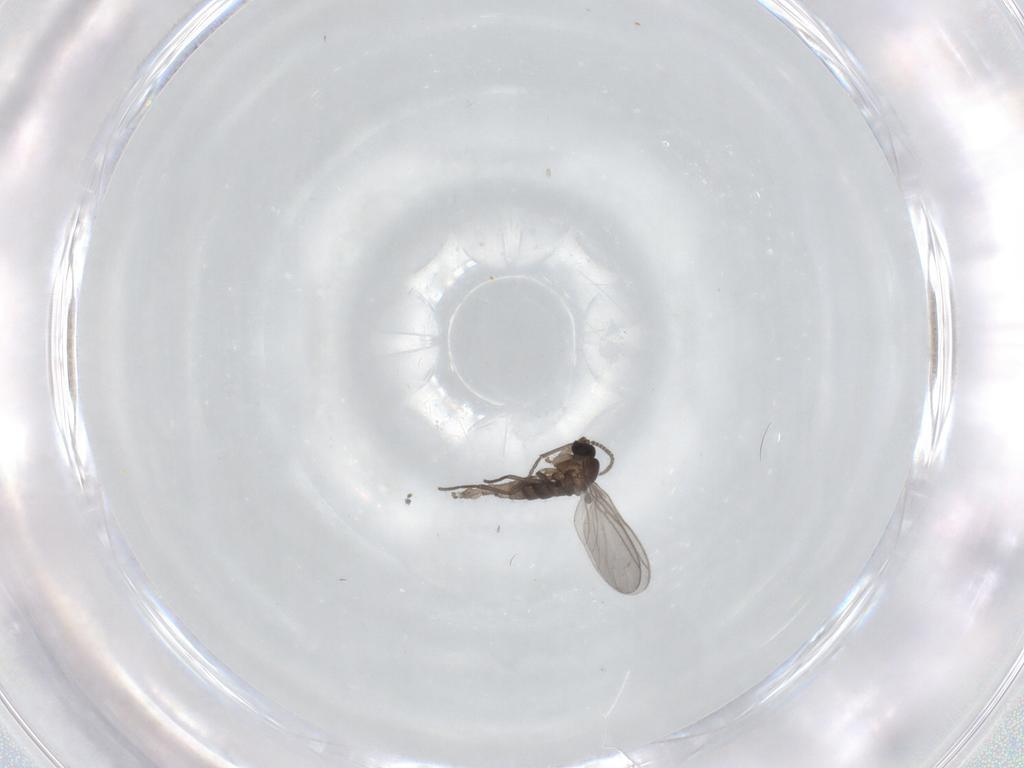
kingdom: Animalia
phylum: Arthropoda
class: Insecta
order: Diptera
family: Sciaridae
